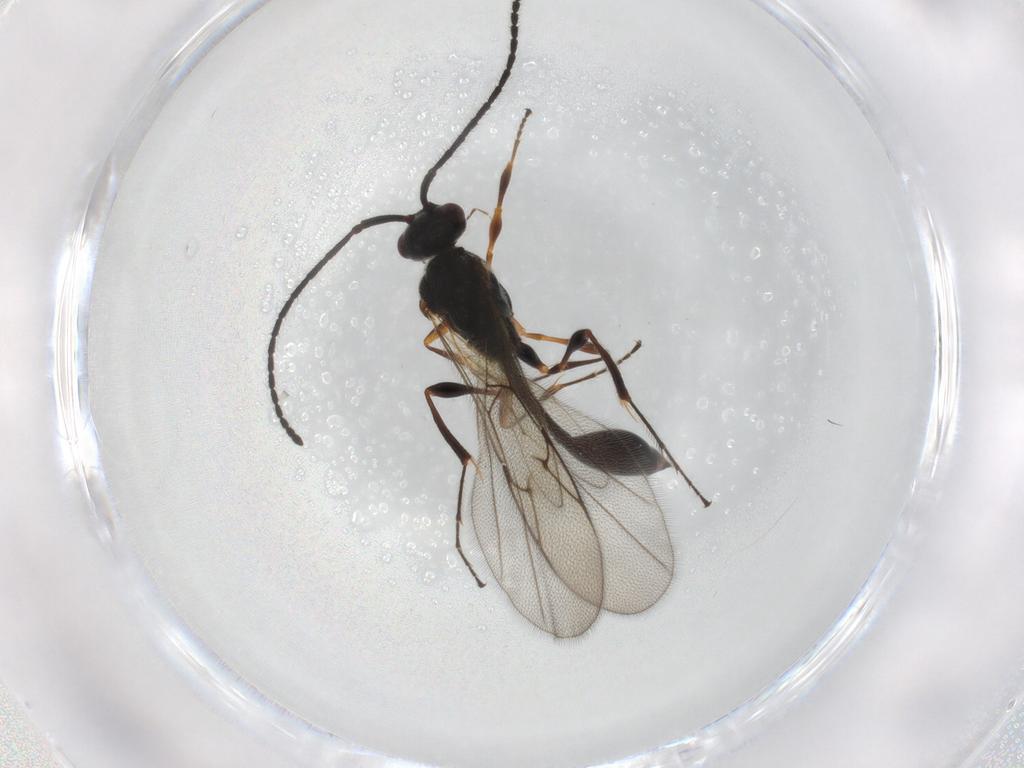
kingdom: Animalia
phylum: Arthropoda
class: Insecta
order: Hymenoptera
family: Diapriidae
